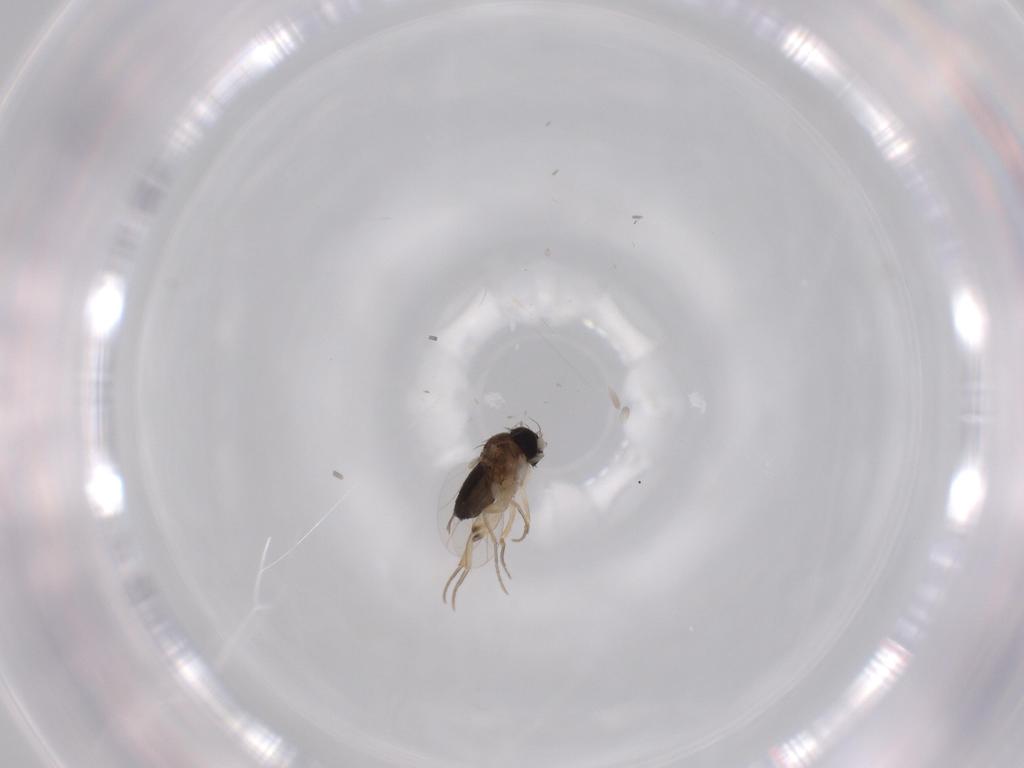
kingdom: Animalia
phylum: Arthropoda
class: Insecta
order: Diptera
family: Phoridae
